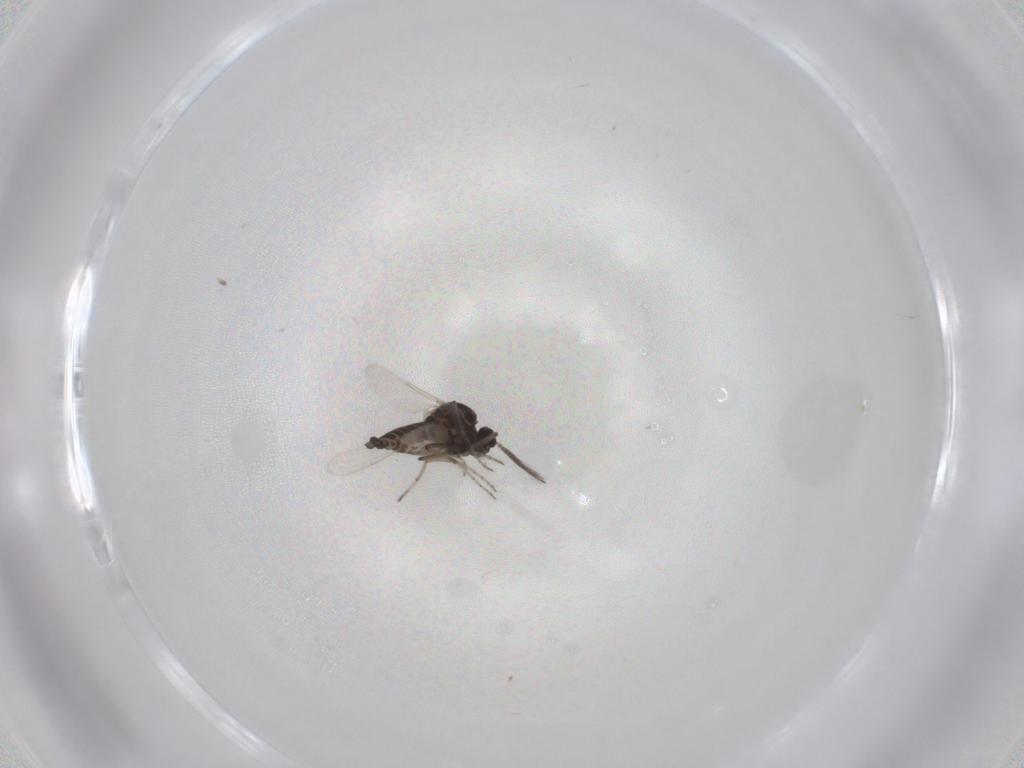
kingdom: Animalia
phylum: Arthropoda
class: Insecta
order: Diptera
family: Ceratopogonidae
